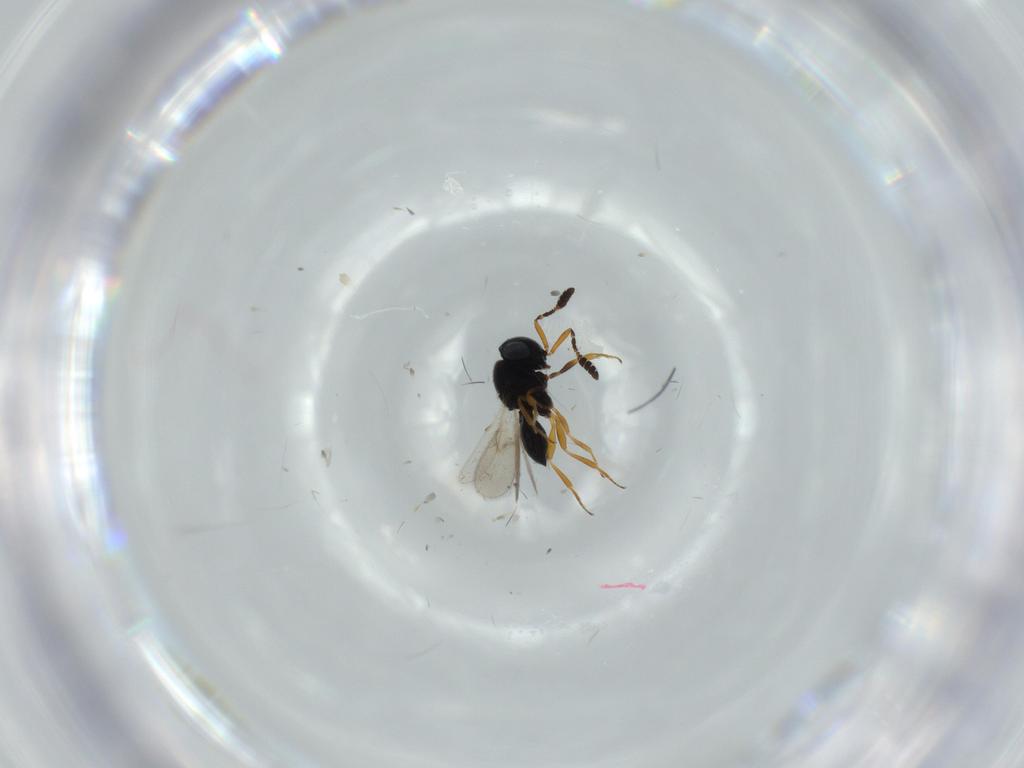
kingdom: Animalia
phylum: Arthropoda
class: Insecta
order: Hymenoptera
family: Scelionidae
